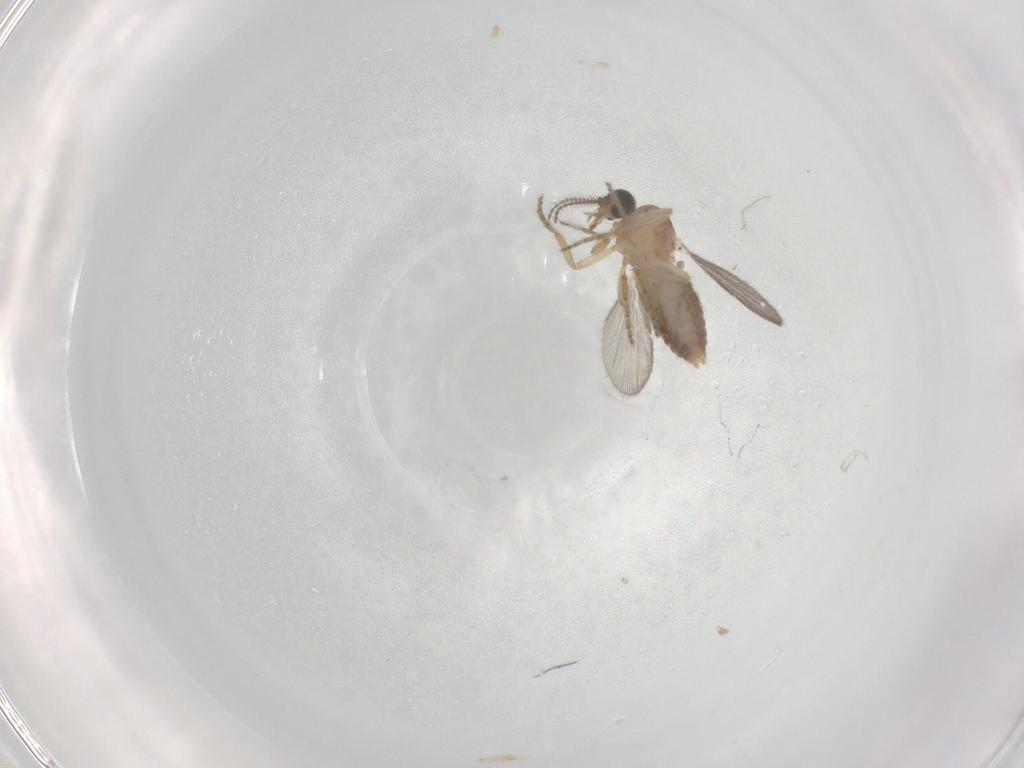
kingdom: Animalia
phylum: Arthropoda
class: Insecta
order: Diptera
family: Ceratopogonidae
